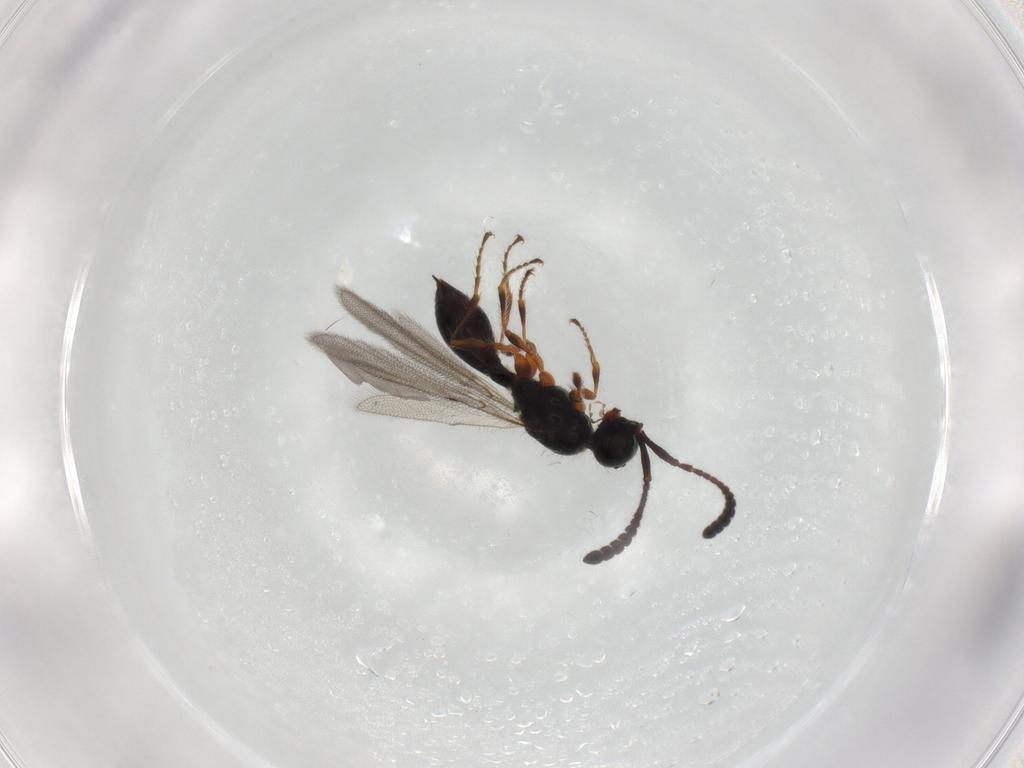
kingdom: Animalia
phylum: Arthropoda
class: Insecta
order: Hymenoptera
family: Diapriidae
